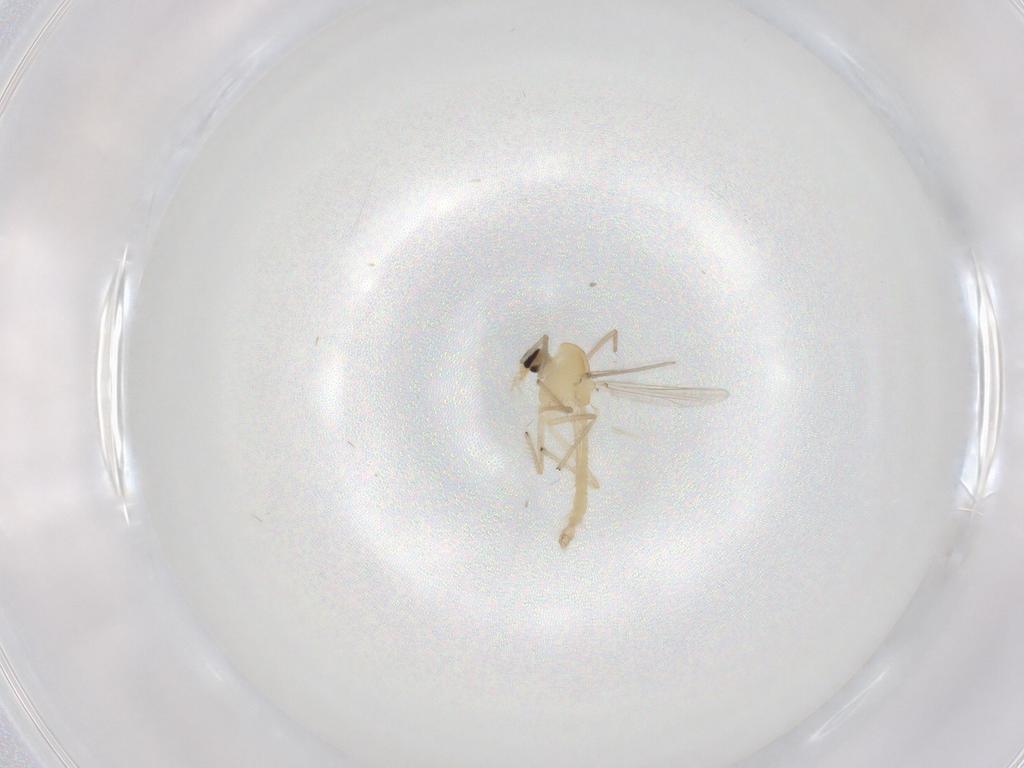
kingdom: Animalia
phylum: Arthropoda
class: Insecta
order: Diptera
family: Chironomidae
